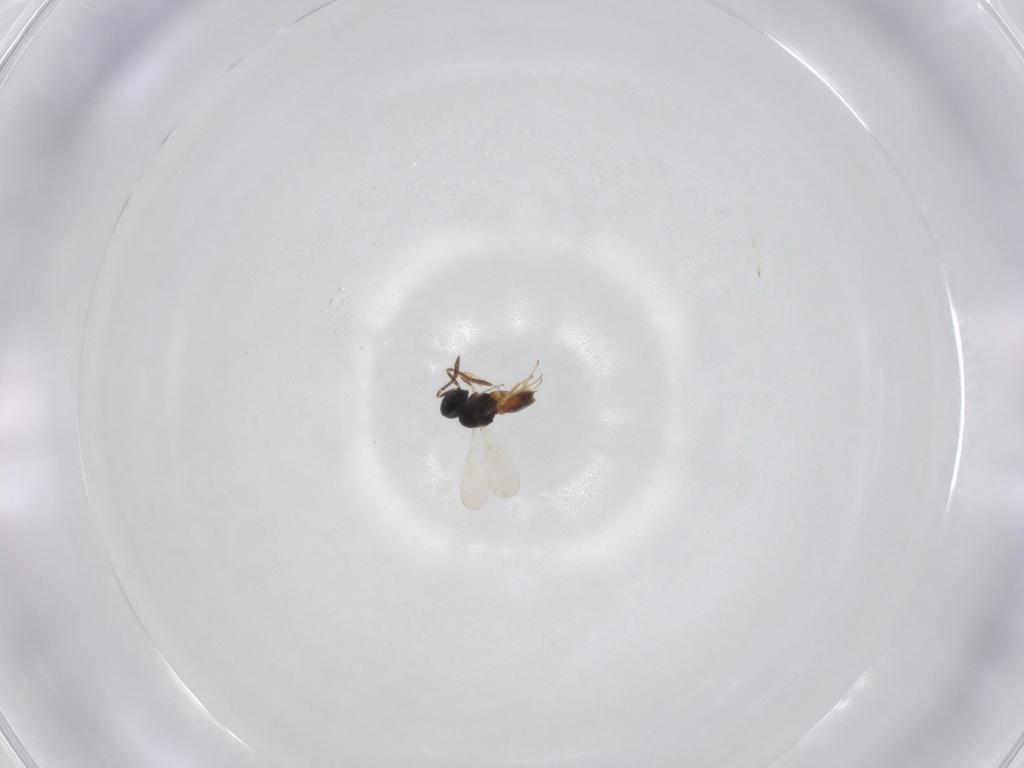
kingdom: Animalia
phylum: Arthropoda
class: Insecta
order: Hymenoptera
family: Scelionidae
